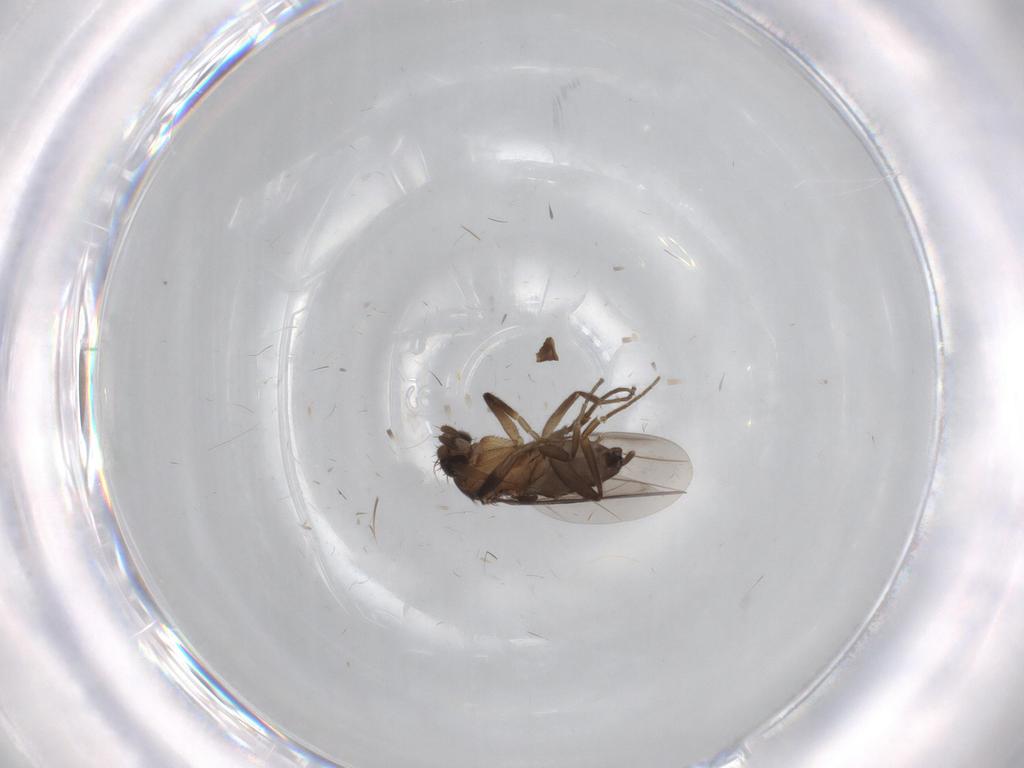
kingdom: Animalia
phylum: Arthropoda
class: Insecta
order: Diptera
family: Phoridae
